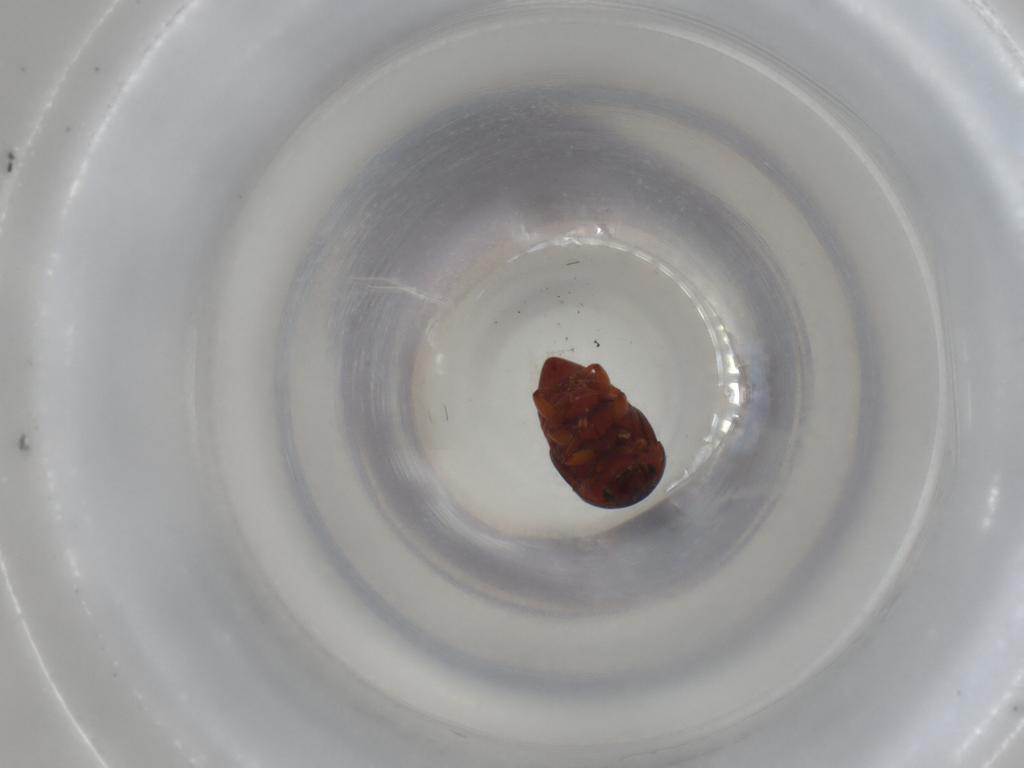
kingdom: Animalia
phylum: Arthropoda
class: Insecta
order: Coleoptera
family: Nitidulidae
